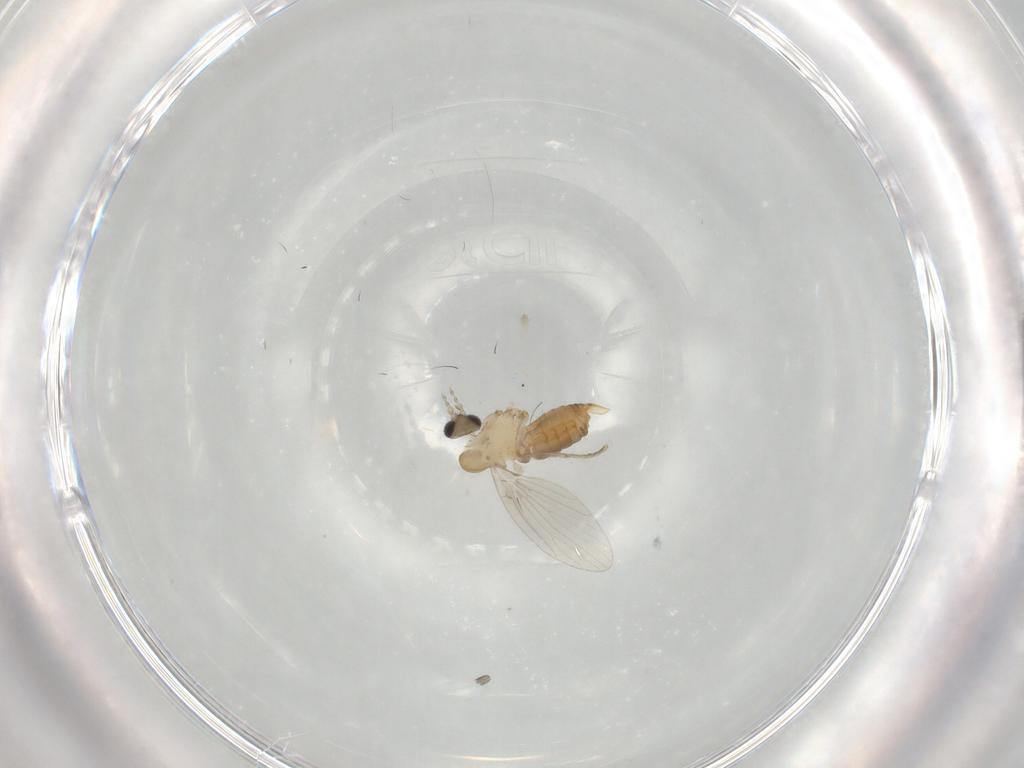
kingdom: Animalia
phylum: Arthropoda
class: Insecta
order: Diptera
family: Psychodidae
